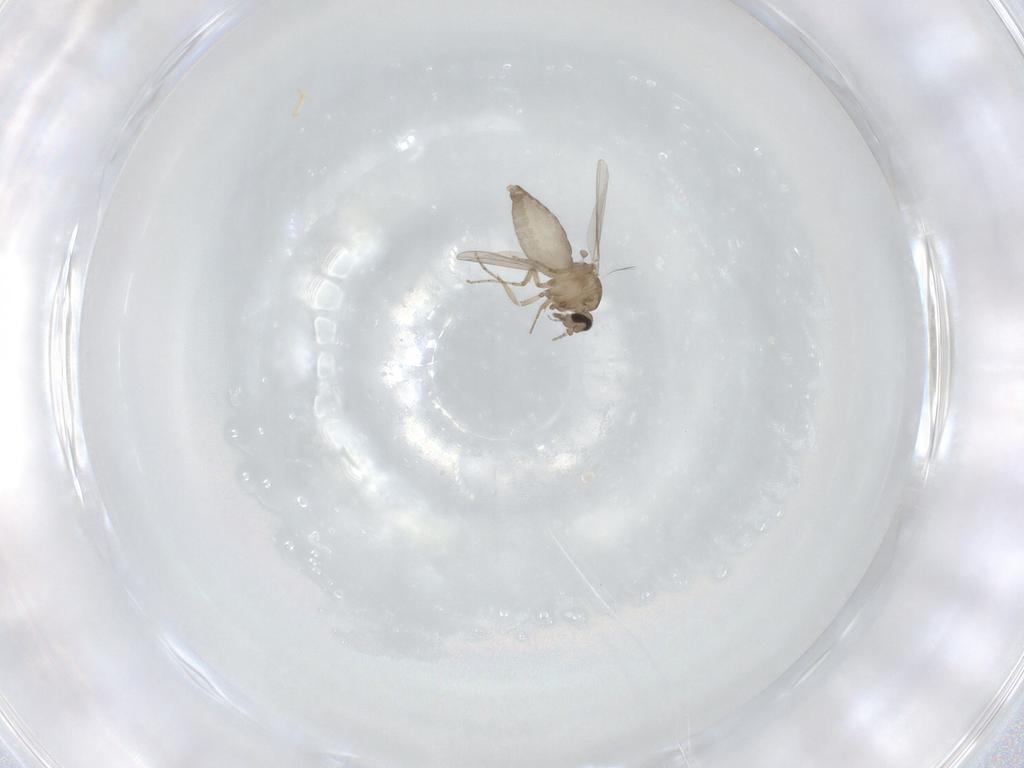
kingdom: Animalia
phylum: Arthropoda
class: Insecta
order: Diptera
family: Ceratopogonidae
